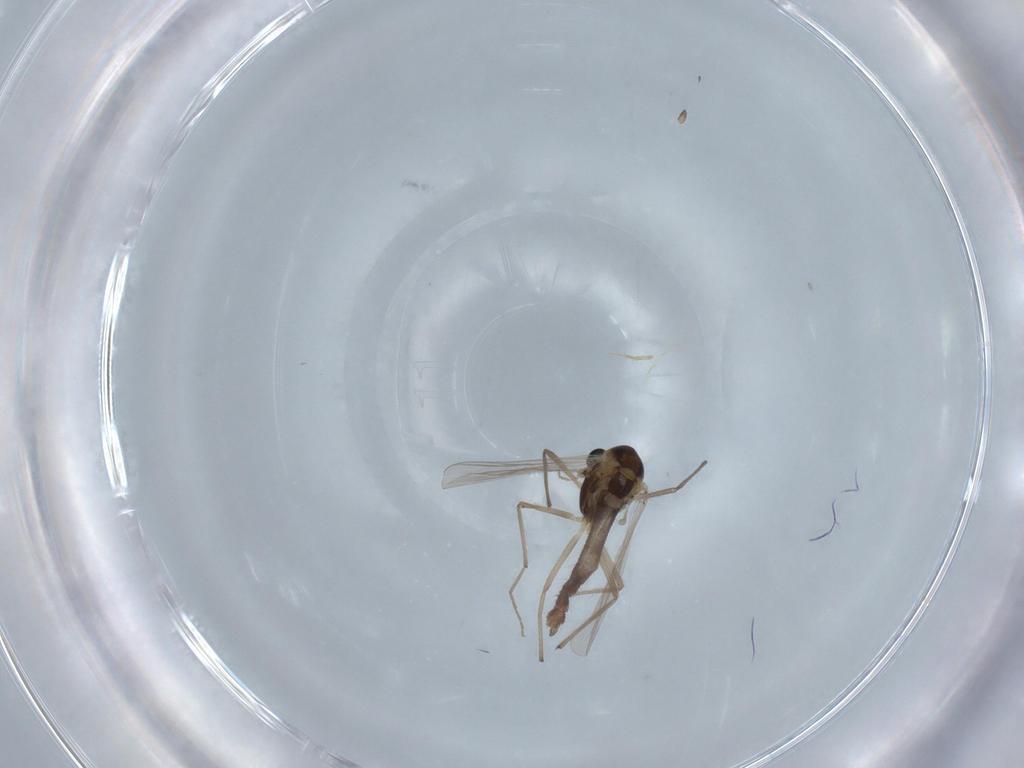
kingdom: Animalia
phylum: Arthropoda
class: Insecta
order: Diptera
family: Chironomidae
